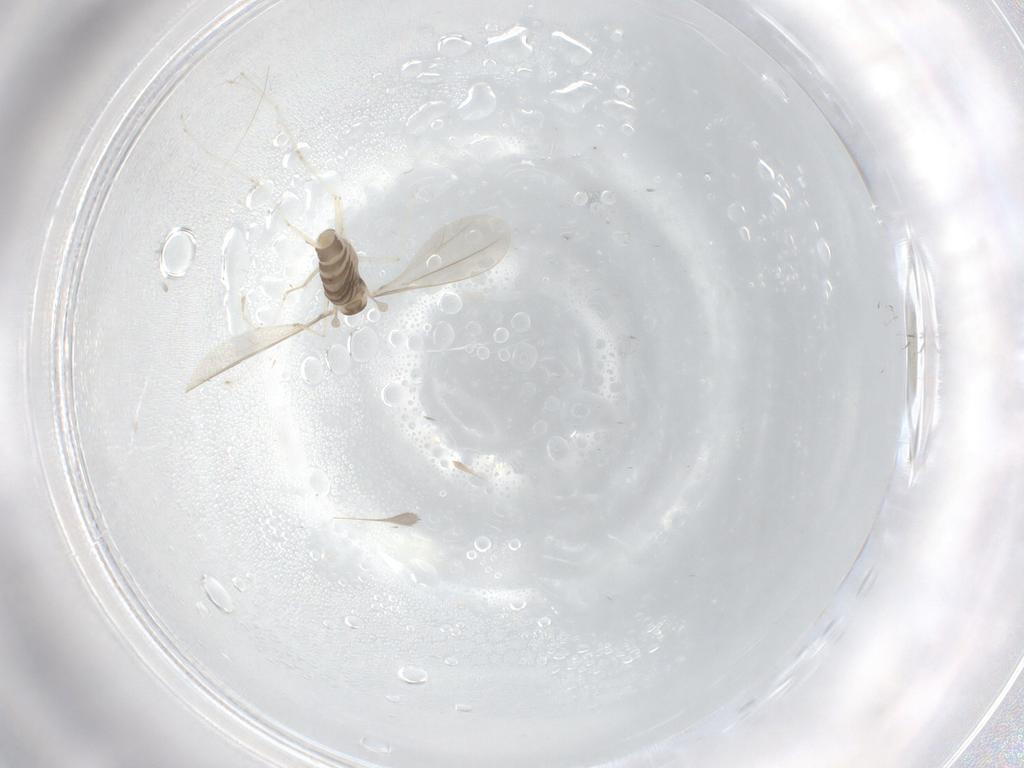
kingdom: Animalia
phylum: Arthropoda
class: Insecta
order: Diptera
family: Cecidomyiidae
